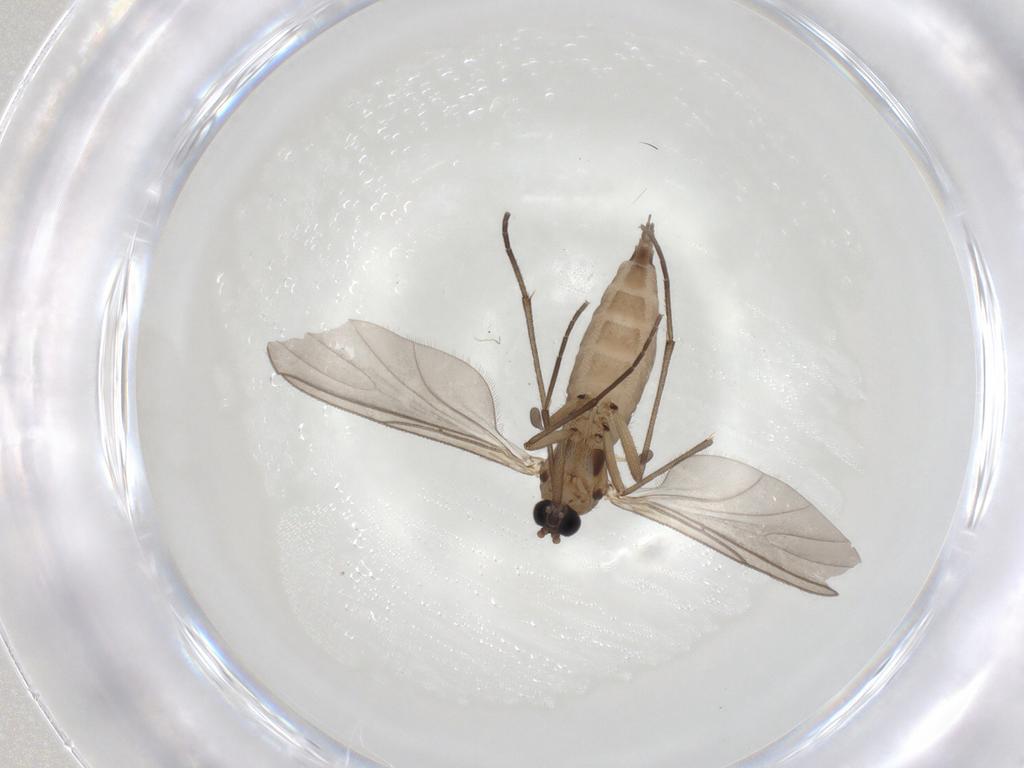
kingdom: Animalia
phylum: Arthropoda
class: Insecta
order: Diptera
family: Sciaridae
